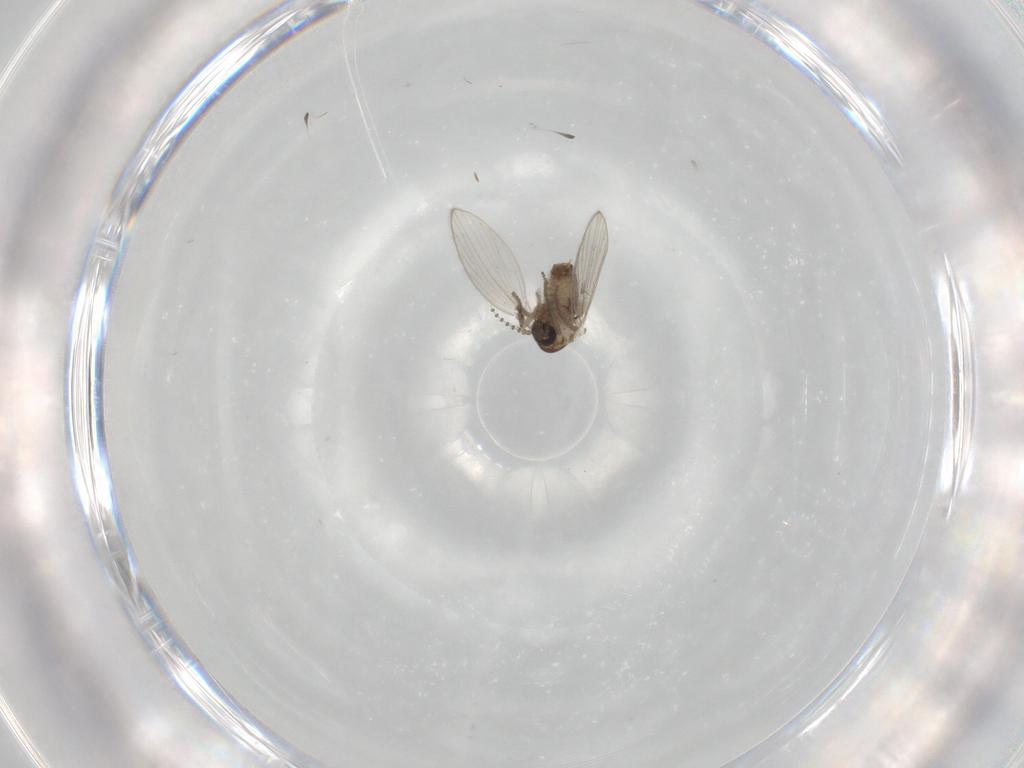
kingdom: Animalia
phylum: Arthropoda
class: Insecta
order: Diptera
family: Psychodidae
